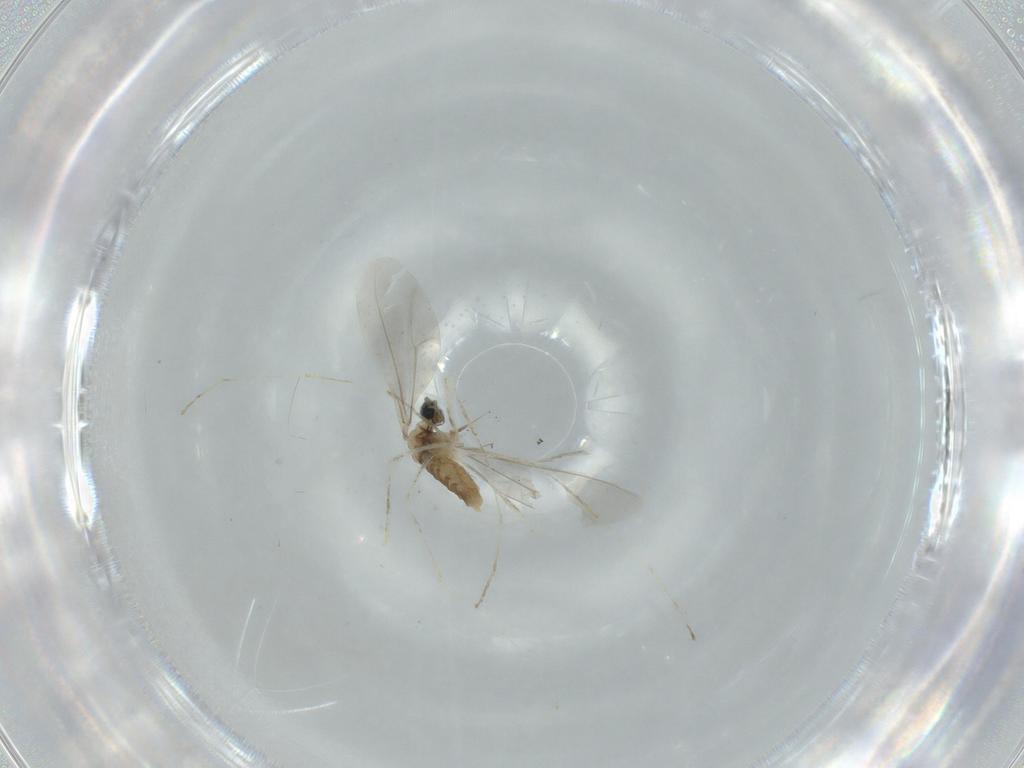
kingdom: Animalia
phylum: Arthropoda
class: Insecta
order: Diptera
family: Cecidomyiidae
